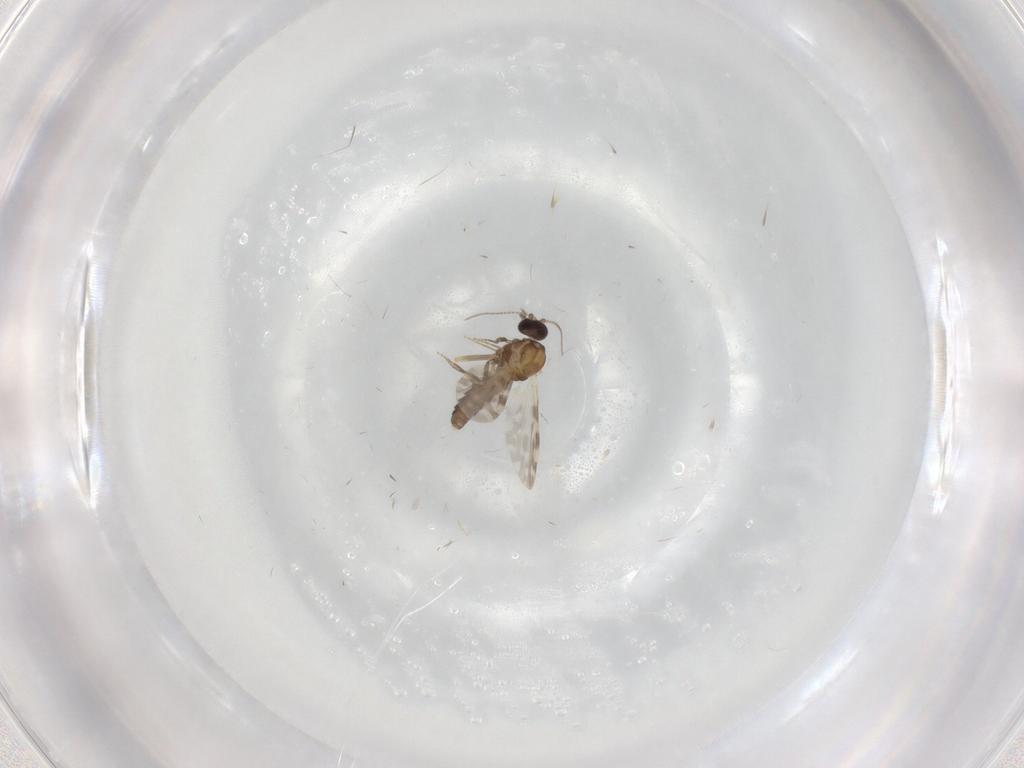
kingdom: Animalia
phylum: Arthropoda
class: Insecta
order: Diptera
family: Ceratopogonidae
